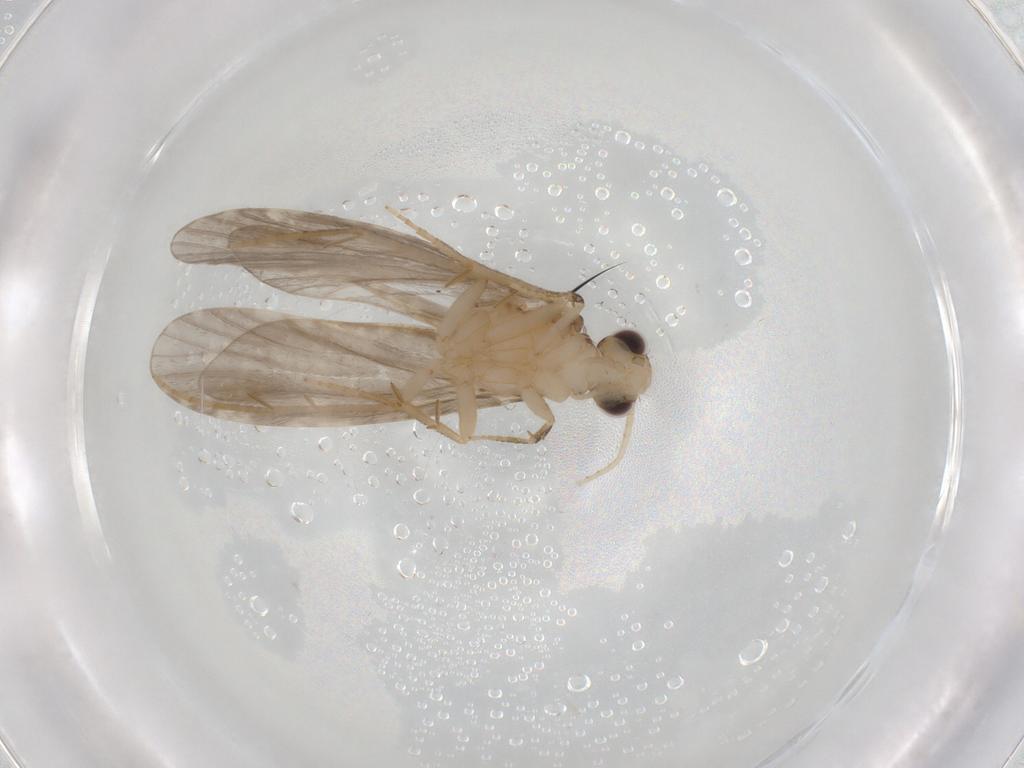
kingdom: Animalia
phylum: Arthropoda
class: Insecta
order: Trichoptera
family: Ecnomidae
